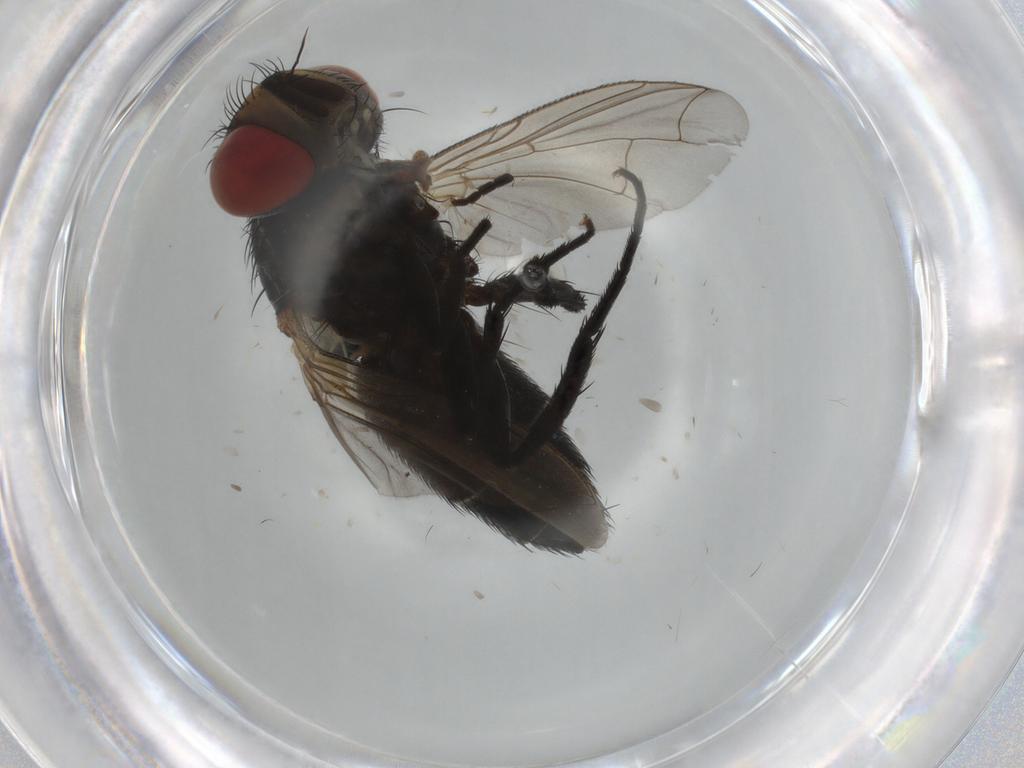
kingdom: Animalia
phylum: Arthropoda
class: Insecta
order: Diptera
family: Anthomyiidae
